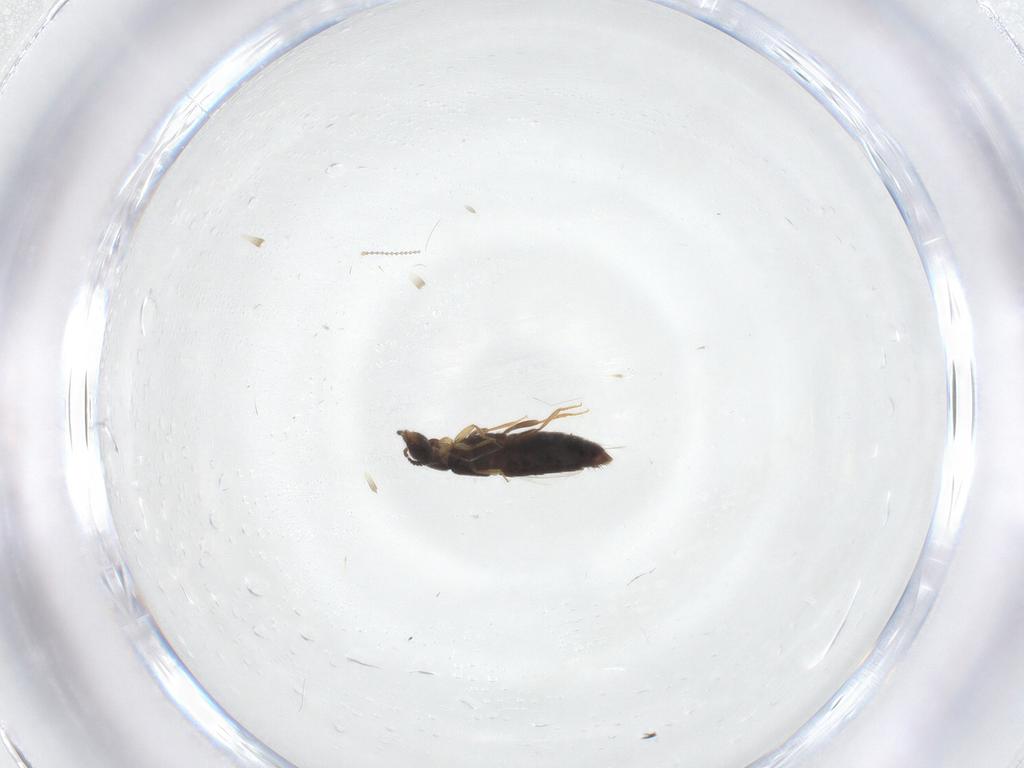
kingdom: Animalia
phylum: Arthropoda
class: Insecta
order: Coleoptera
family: Staphylinidae
